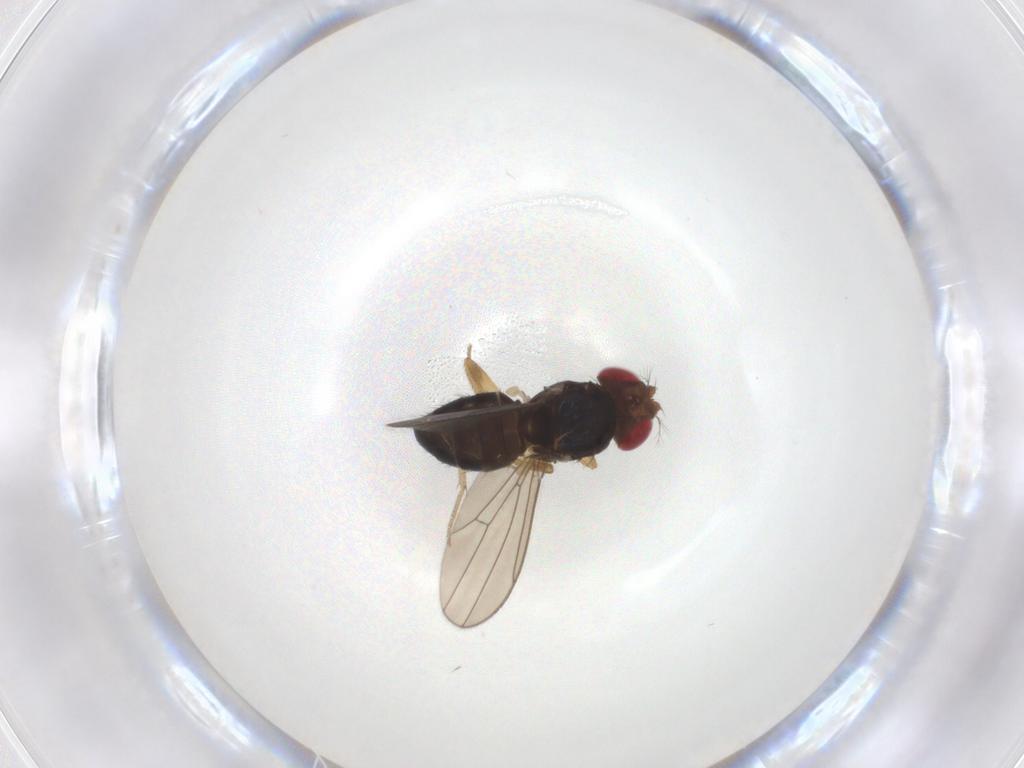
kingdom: Animalia
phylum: Arthropoda
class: Insecta
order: Diptera
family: Drosophilidae
